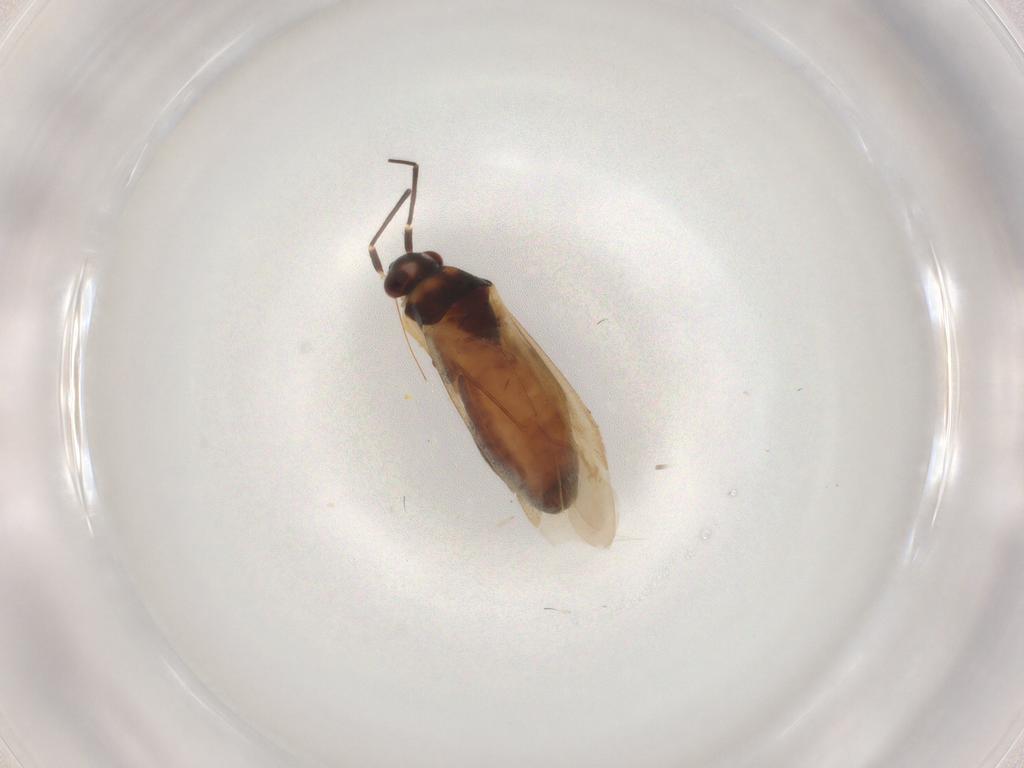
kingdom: Animalia
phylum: Arthropoda
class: Insecta
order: Hemiptera
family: Miridae
